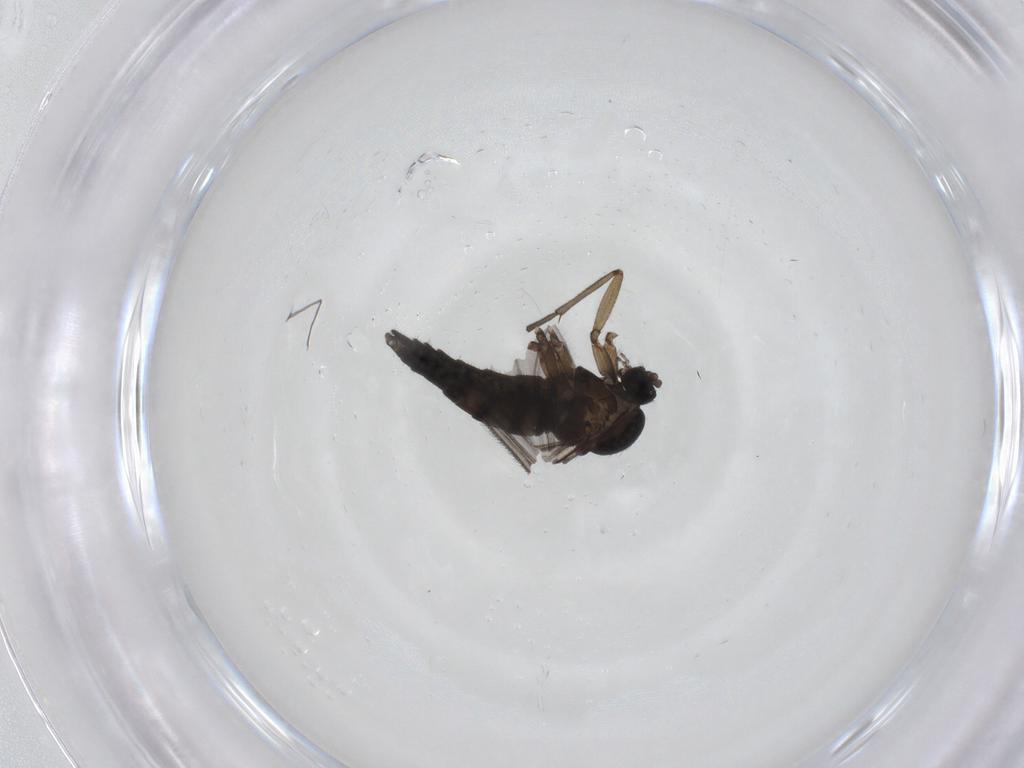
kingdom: Animalia
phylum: Arthropoda
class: Insecta
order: Diptera
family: Sciaridae
